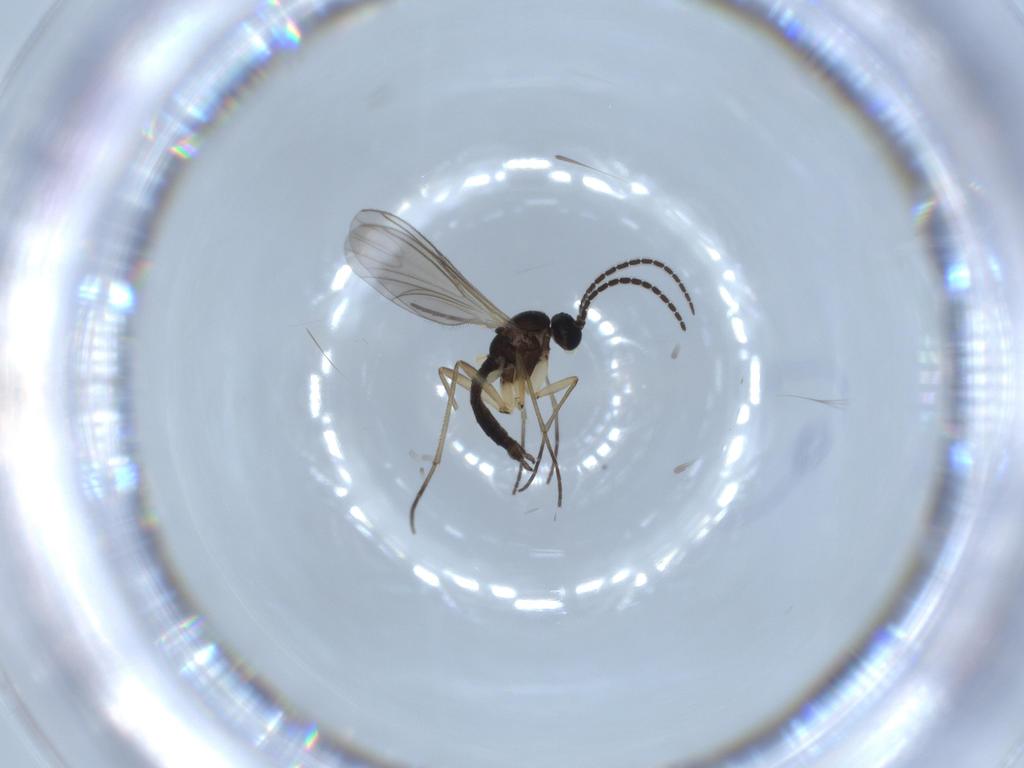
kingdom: Animalia
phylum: Arthropoda
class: Insecta
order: Diptera
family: Sciaridae
